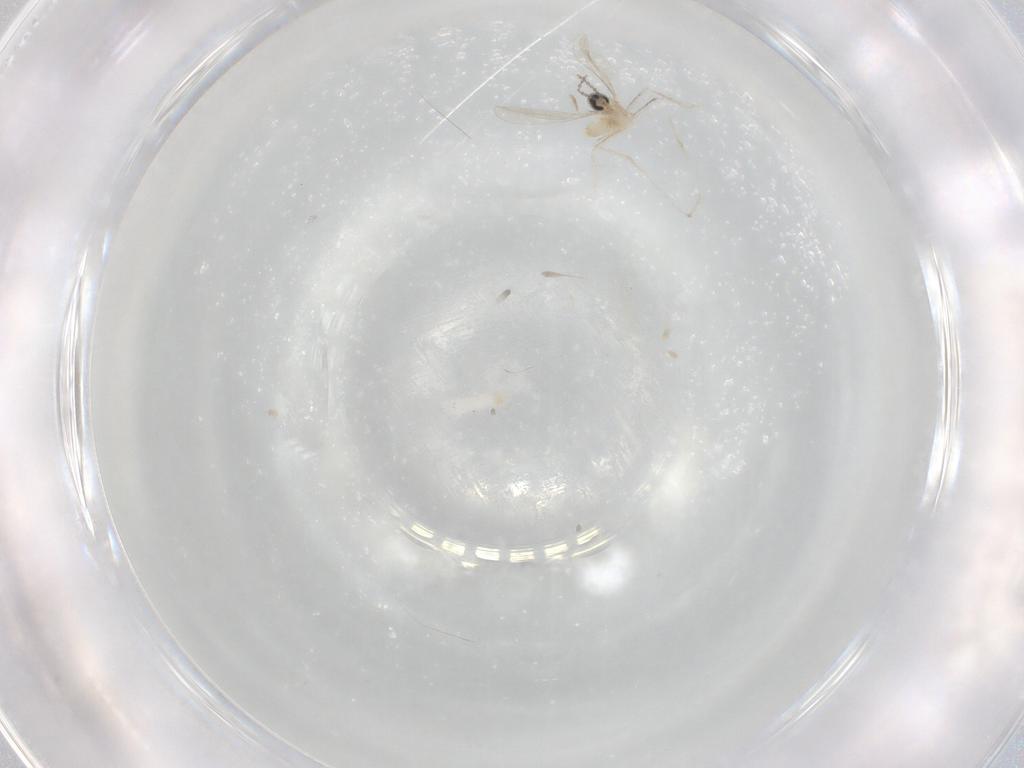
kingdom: Animalia
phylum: Arthropoda
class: Insecta
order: Diptera
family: Cecidomyiidae
